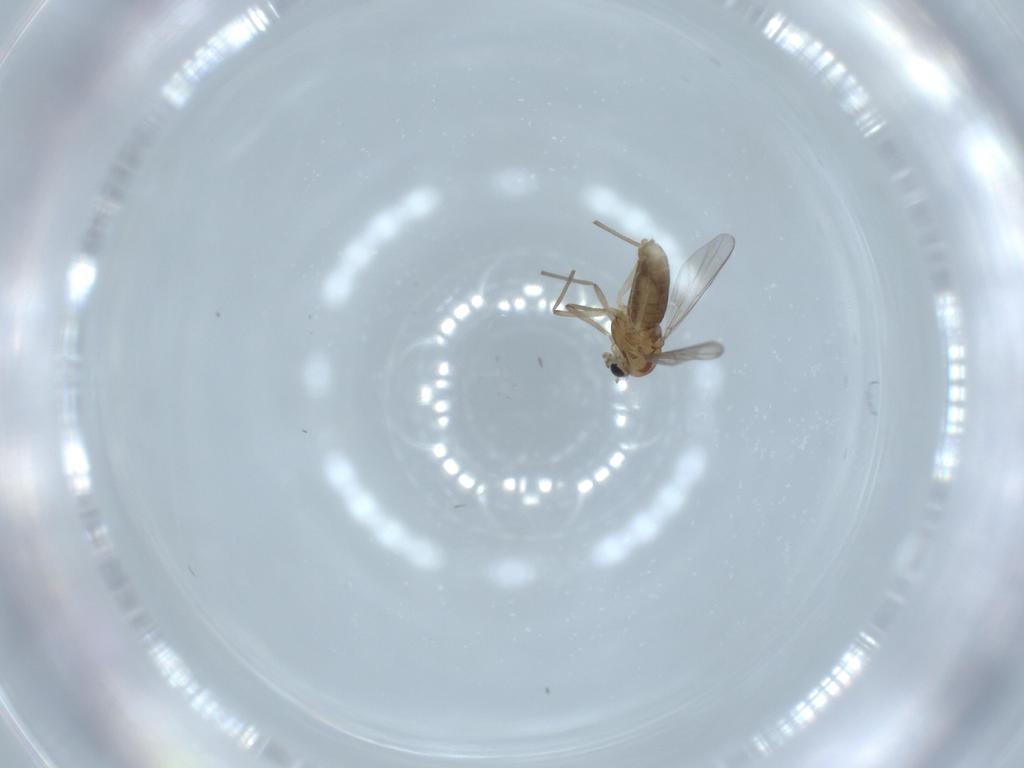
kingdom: Animalia
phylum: Arthropoda
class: Insecta
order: Diptera
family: Chironomidae
